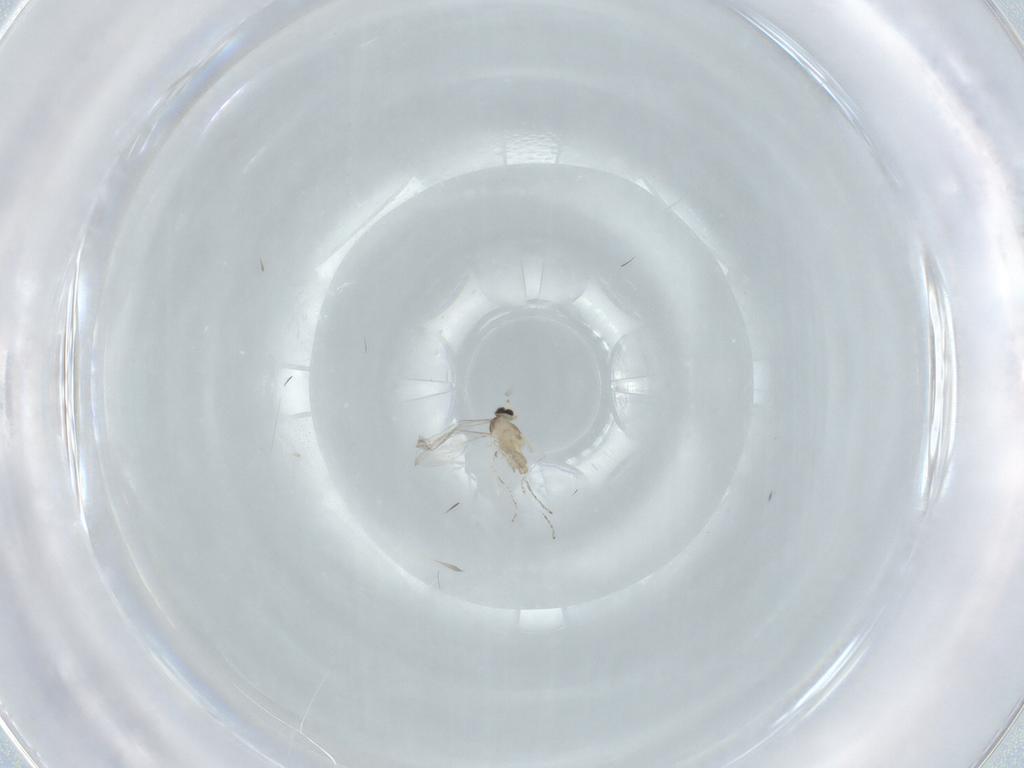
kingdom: Animalia
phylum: Arthropoda
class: Insecta
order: Diptera
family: Cecidomyiidae
